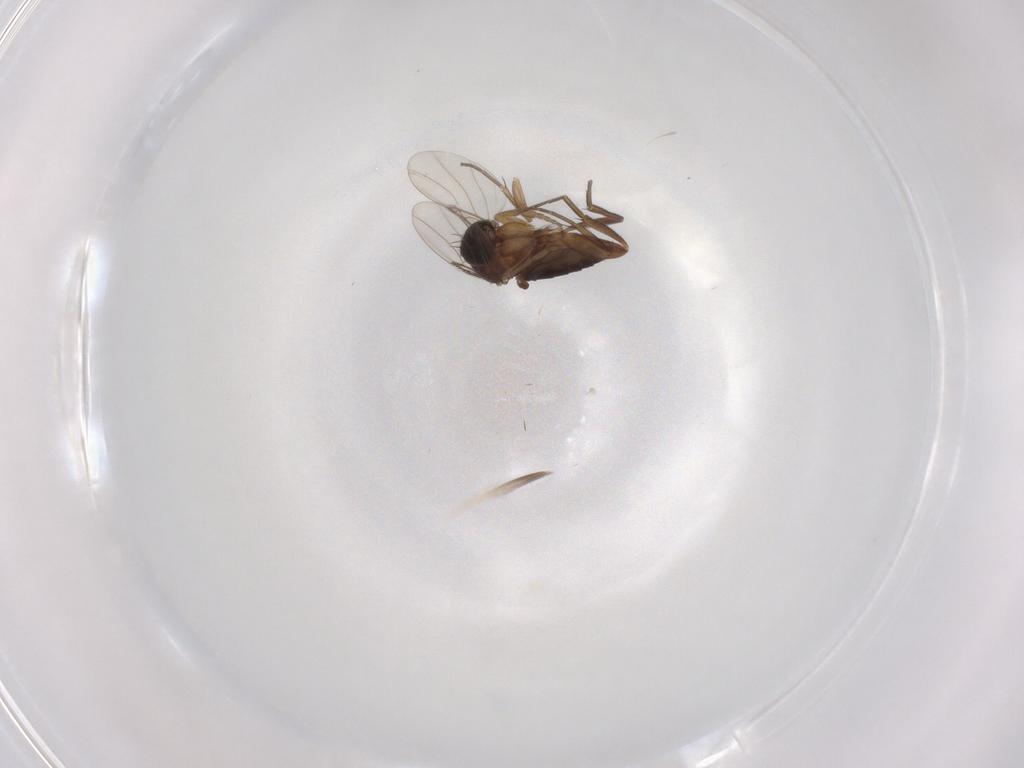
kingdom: Animalia
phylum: Arthropoda
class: Insecta
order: Diptera
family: Phoridae
